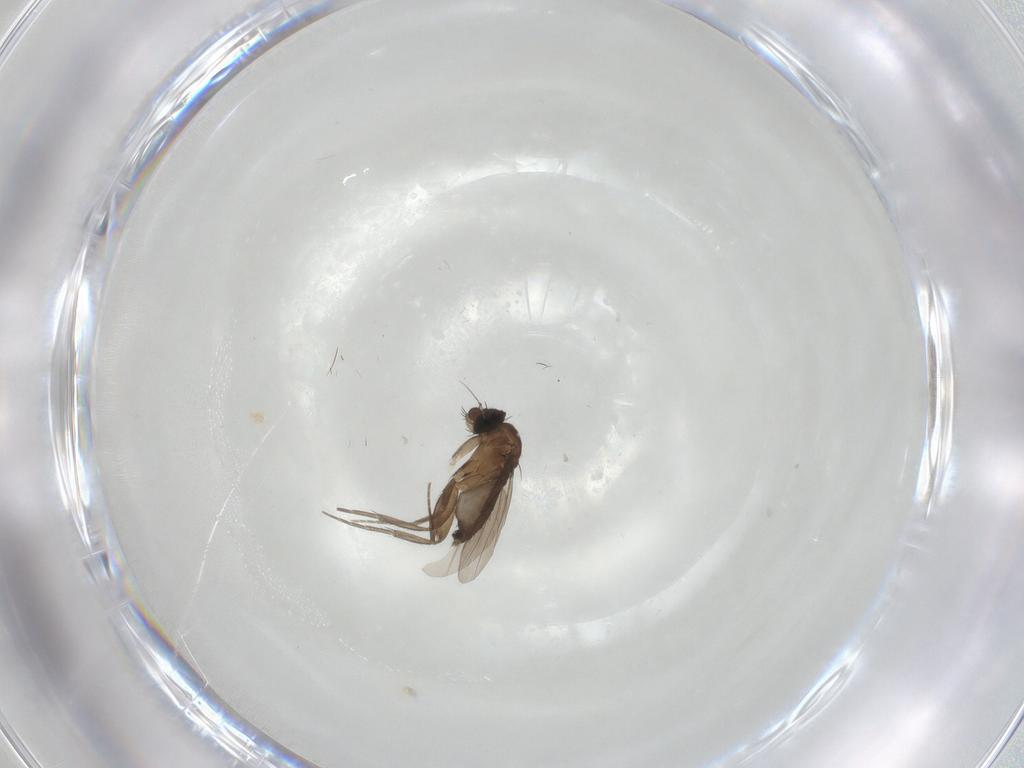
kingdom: Animalia
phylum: Arthropoda
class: Insecta
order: Diptera
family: Phoridae
